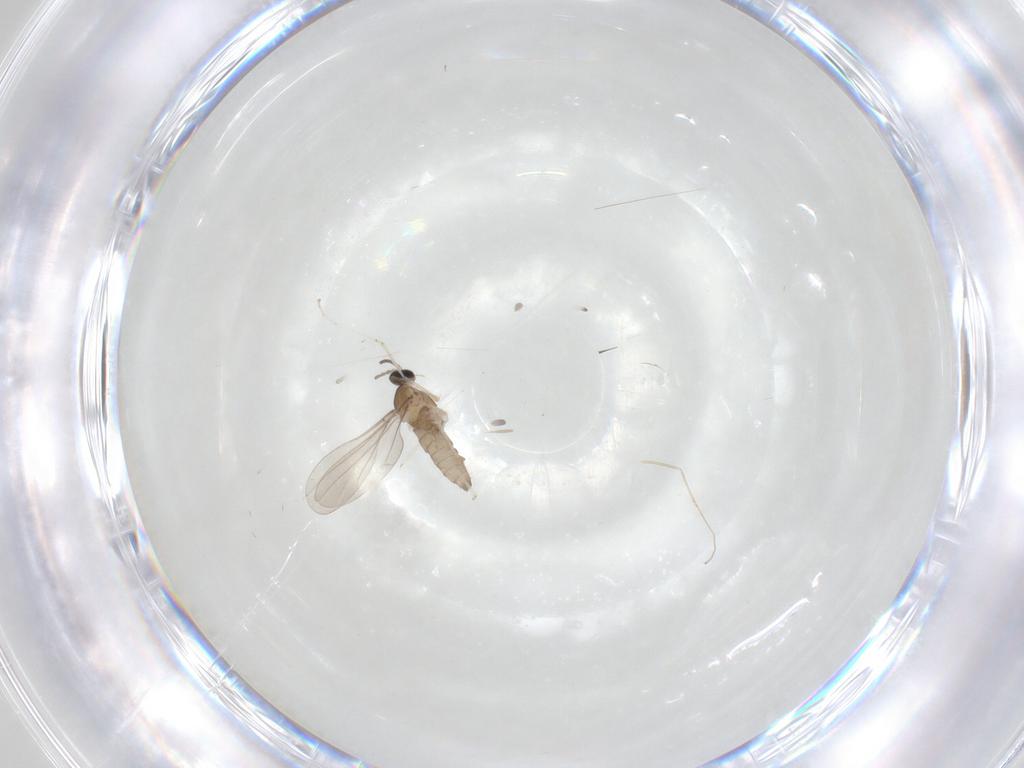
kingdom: Animalia
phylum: Arthropoda
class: Insecta
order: Diptera
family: Cecidomyiidae
